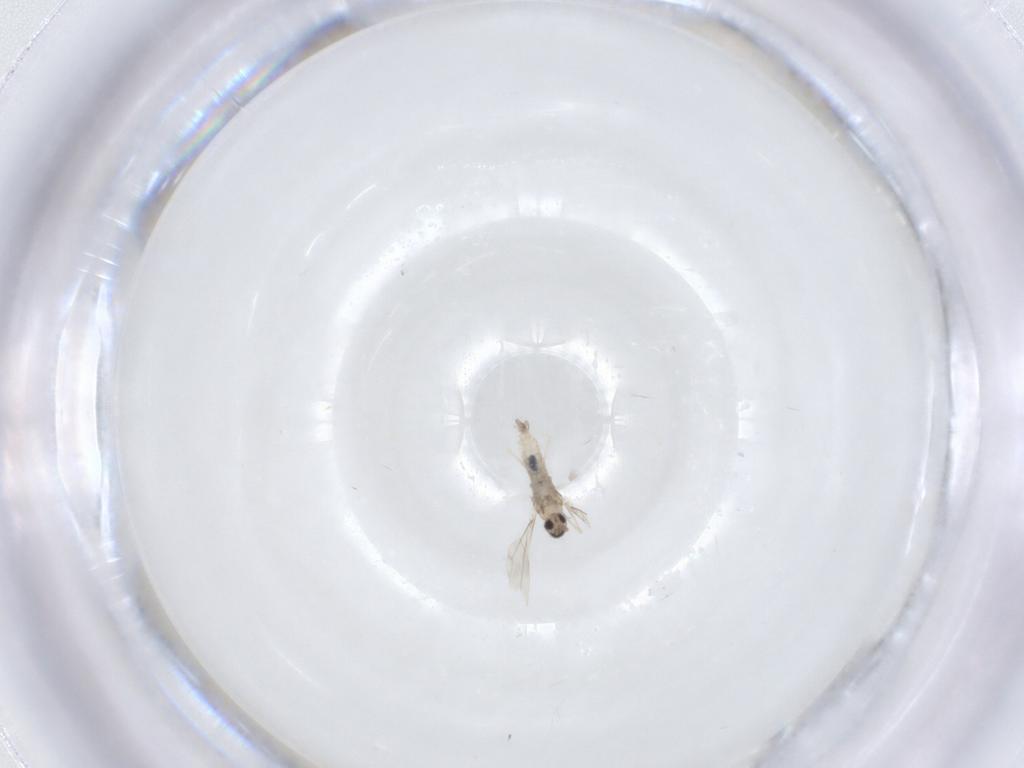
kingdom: Animalia
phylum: Arthropoda
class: Insecta
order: Diptera
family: Cecidomyiidae
